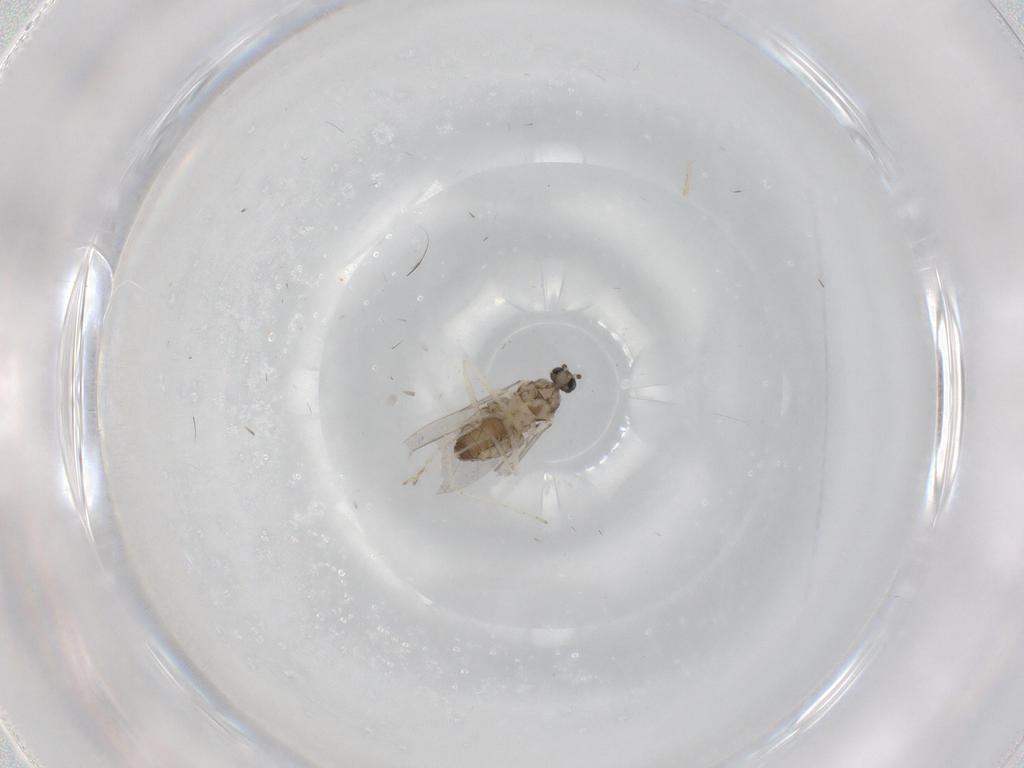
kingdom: Animalia
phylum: Arthropoda
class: Insecta
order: Diptera
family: Cecidomyiidae
